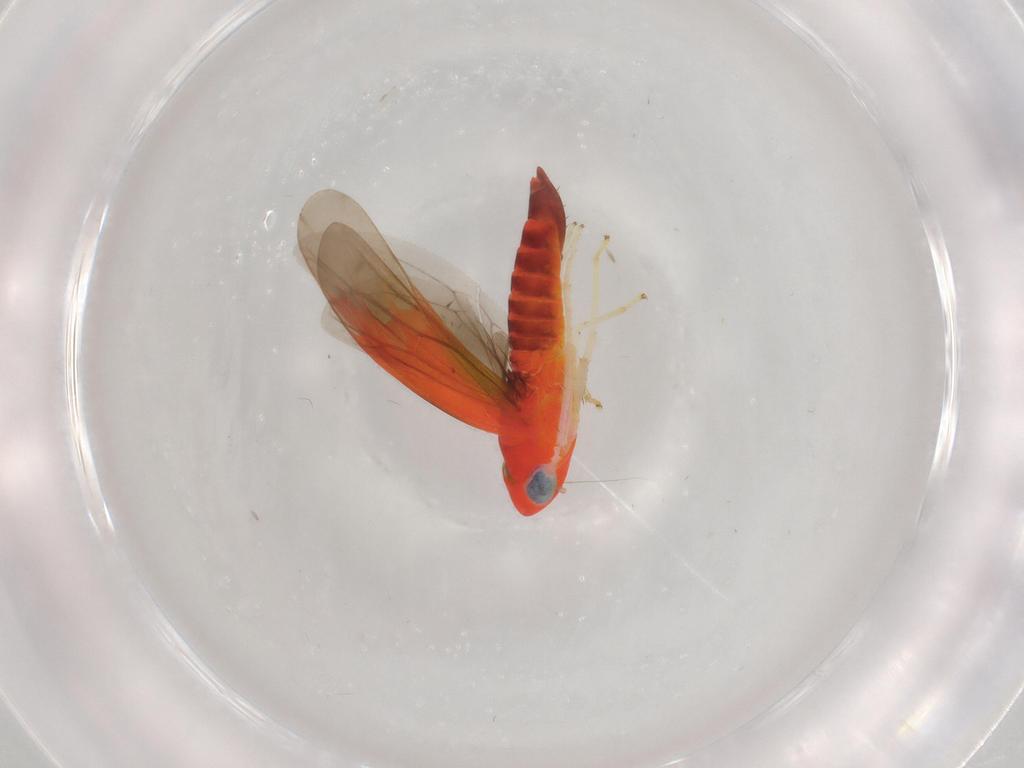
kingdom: Animalia
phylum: Arthropoda
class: Insecta
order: Hemiptera
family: Cicadellidae
